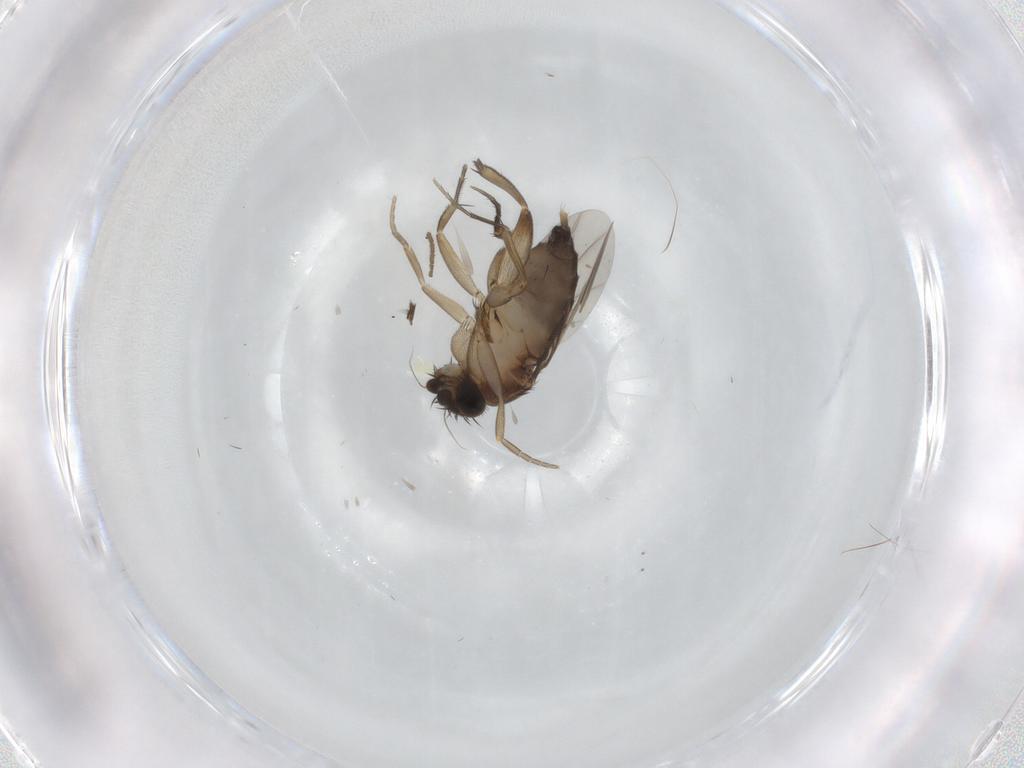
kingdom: Animalia
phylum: Arthropoda
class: Insecta
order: Diptera
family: Phoridae
